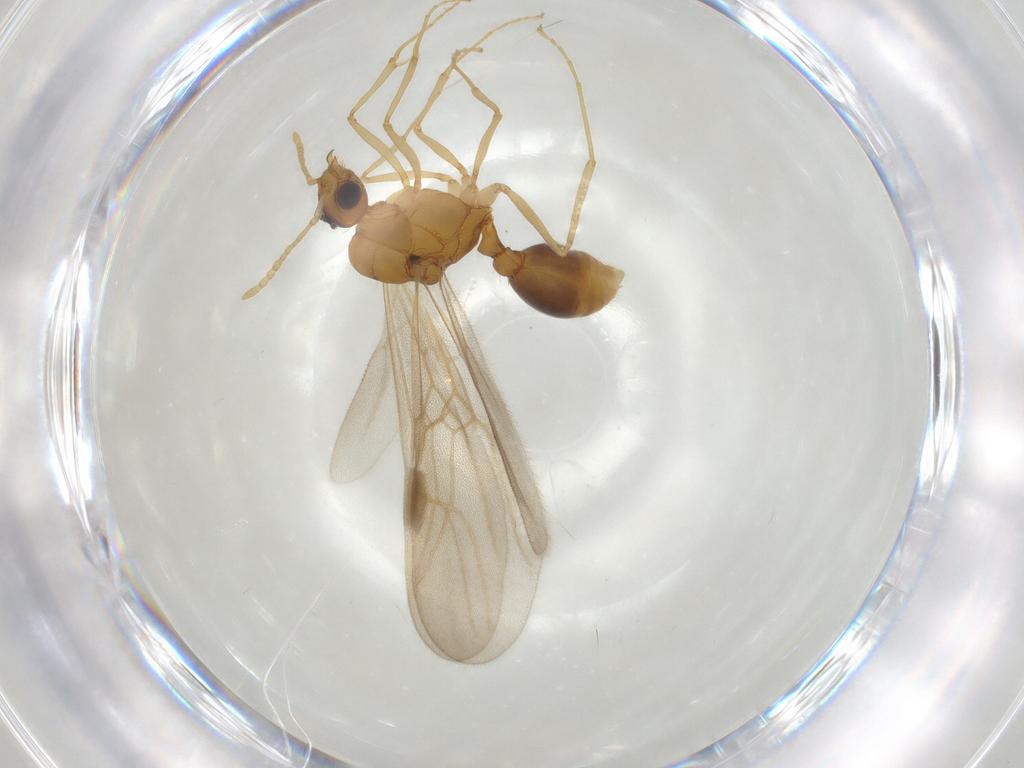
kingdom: Animalia
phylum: Arthropoda
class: Insecta
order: Hymenoptera
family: Formicidae
